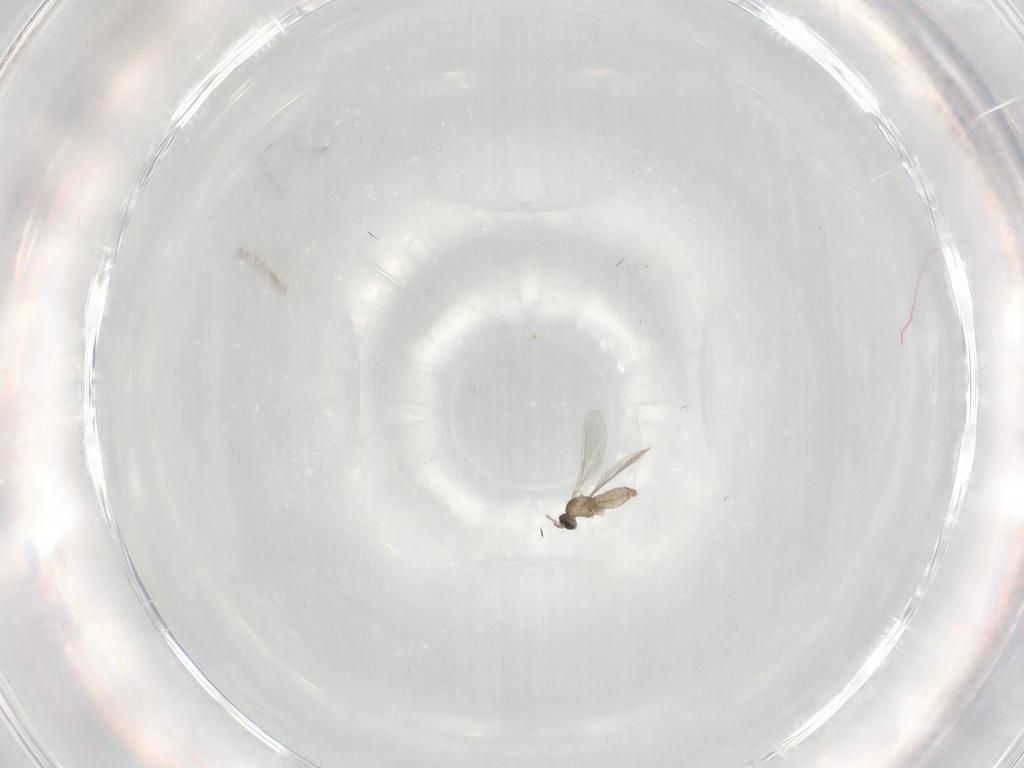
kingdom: Animalia
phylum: Arthropoda
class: Insecta
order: Diptera
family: Cecidomyiidae
